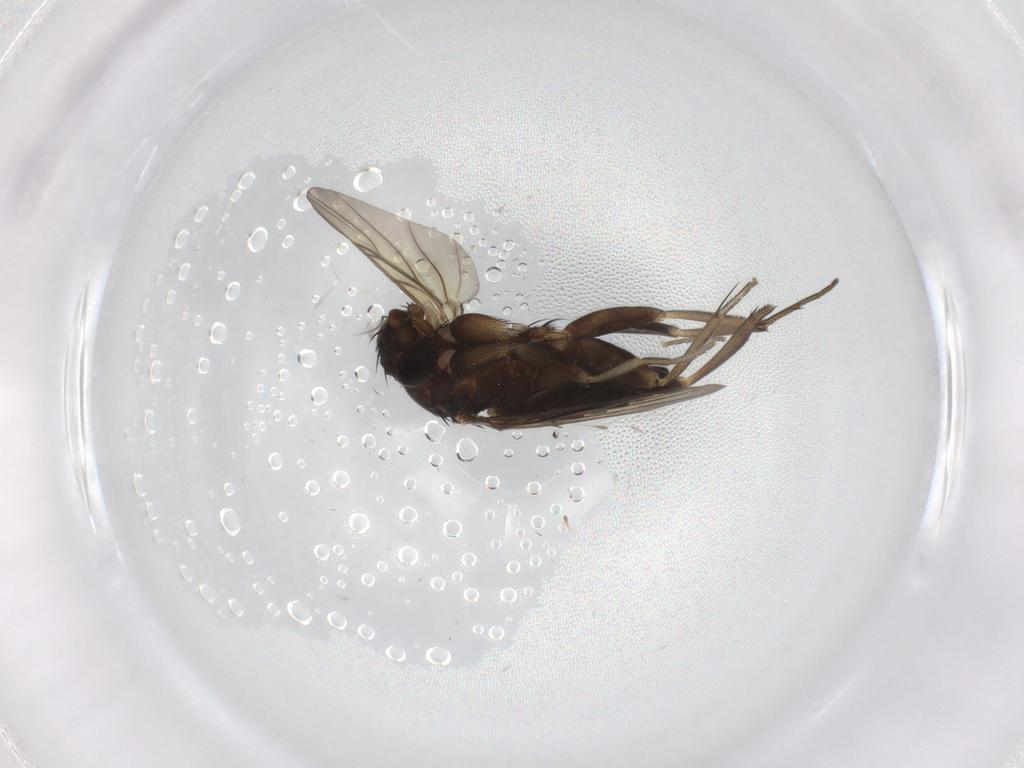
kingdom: Animalia
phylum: Arthropoda
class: Insecta
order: Diptera
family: Phoridae
